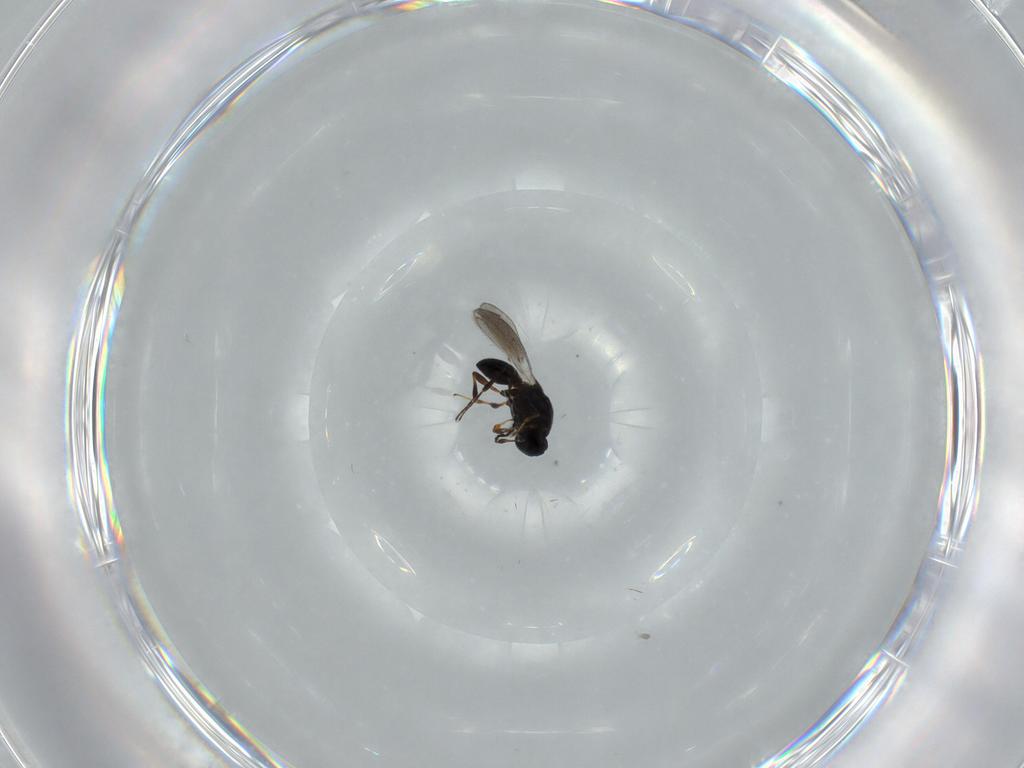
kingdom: Animalia
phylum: Arthropoda
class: Insecta
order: Hymenoptera
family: Platygastridae
